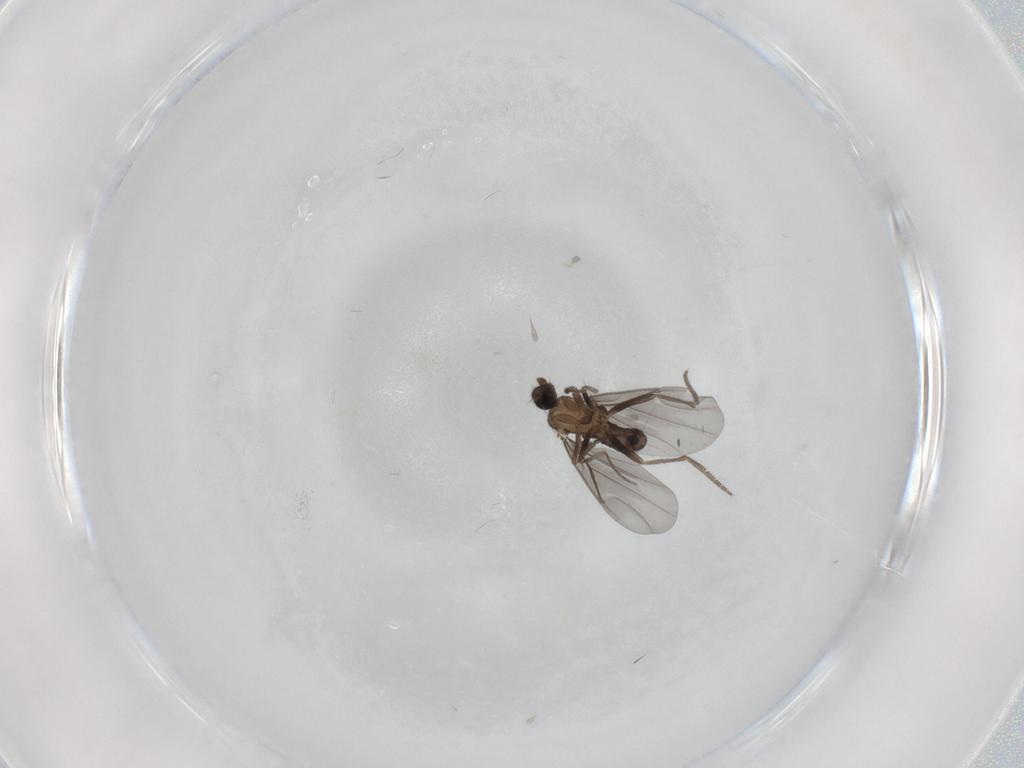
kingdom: Animalia
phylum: Arthropoda
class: Insecta
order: Diptera
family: Phoridae
